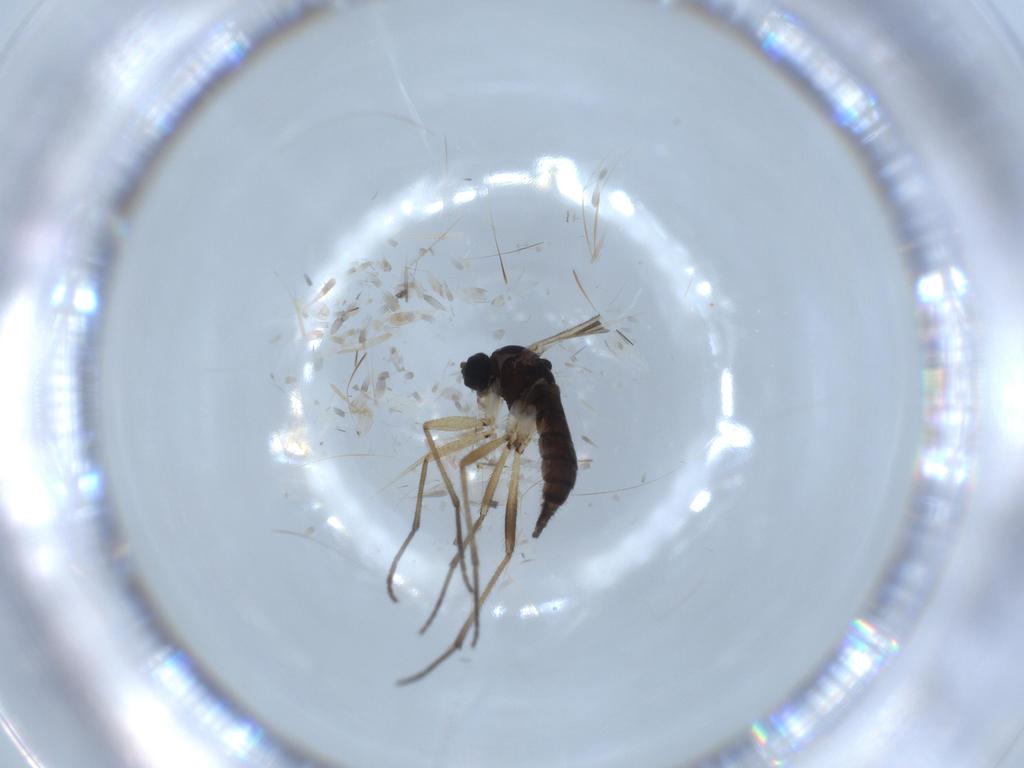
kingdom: Animalia
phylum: Arthropoda
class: Insecta
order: Diptera
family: Sciaridae
